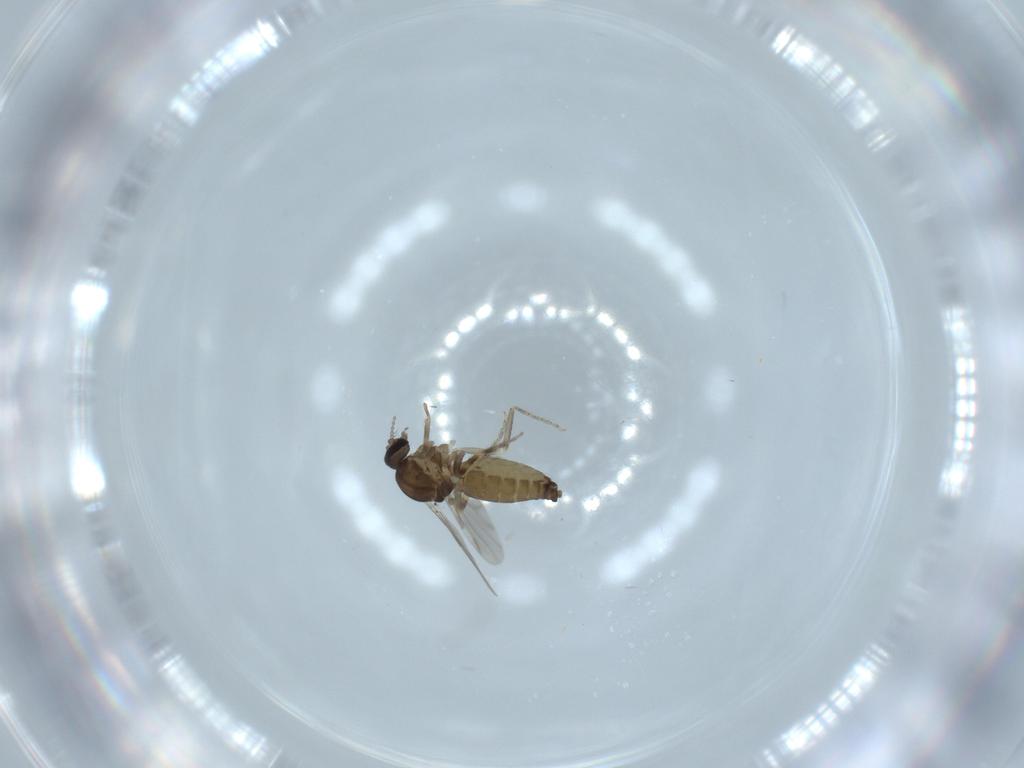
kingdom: Animalia
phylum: Arthropoda
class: Insecta
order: Diptera
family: Ceratopogonidae
